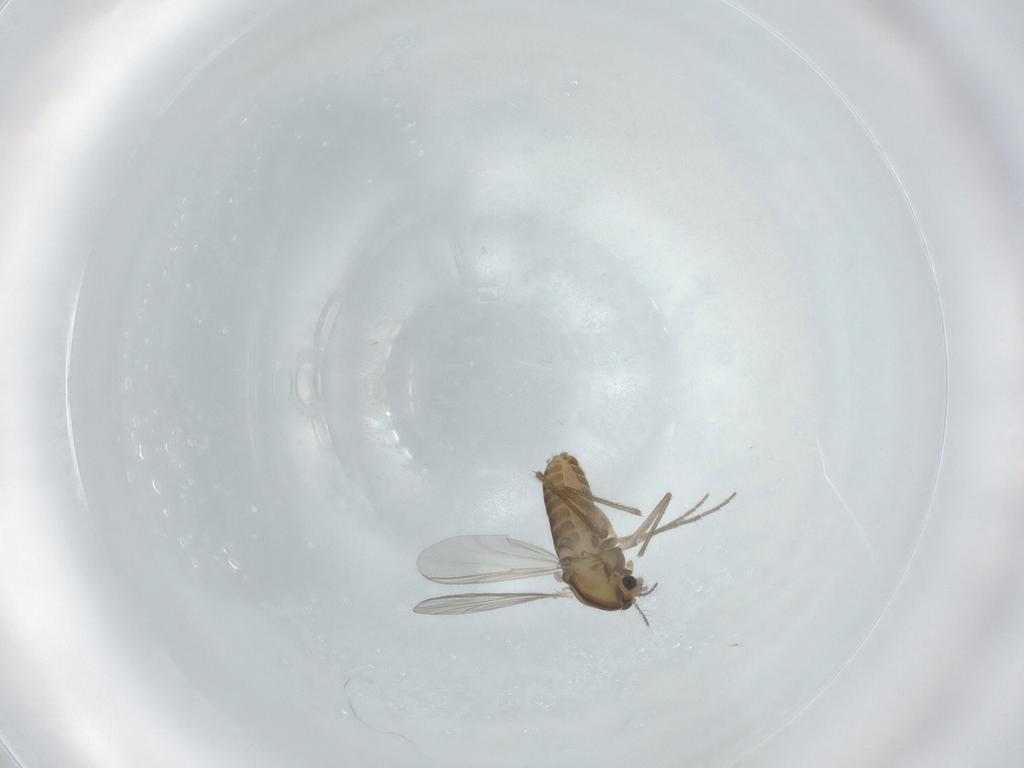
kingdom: Animalia
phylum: Arthropoda
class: Insecta
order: Diptera
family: Chironomidae
